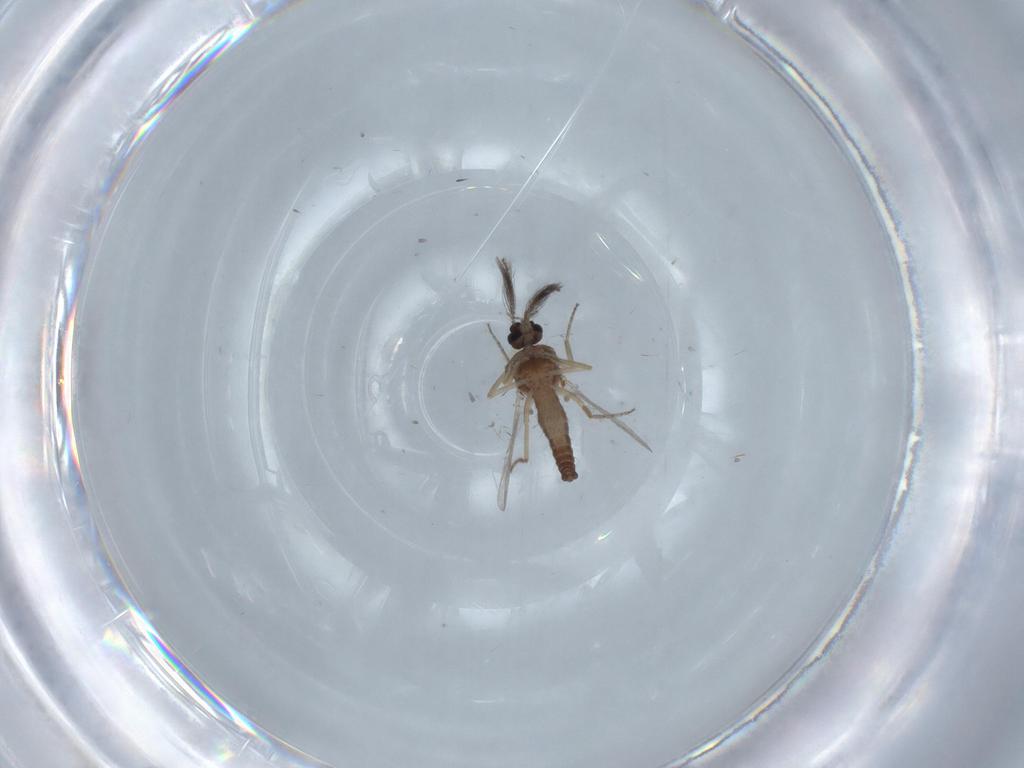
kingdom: Animalia
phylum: Arthropoda
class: Insecta
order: Diptera
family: Ceratopogonidae
